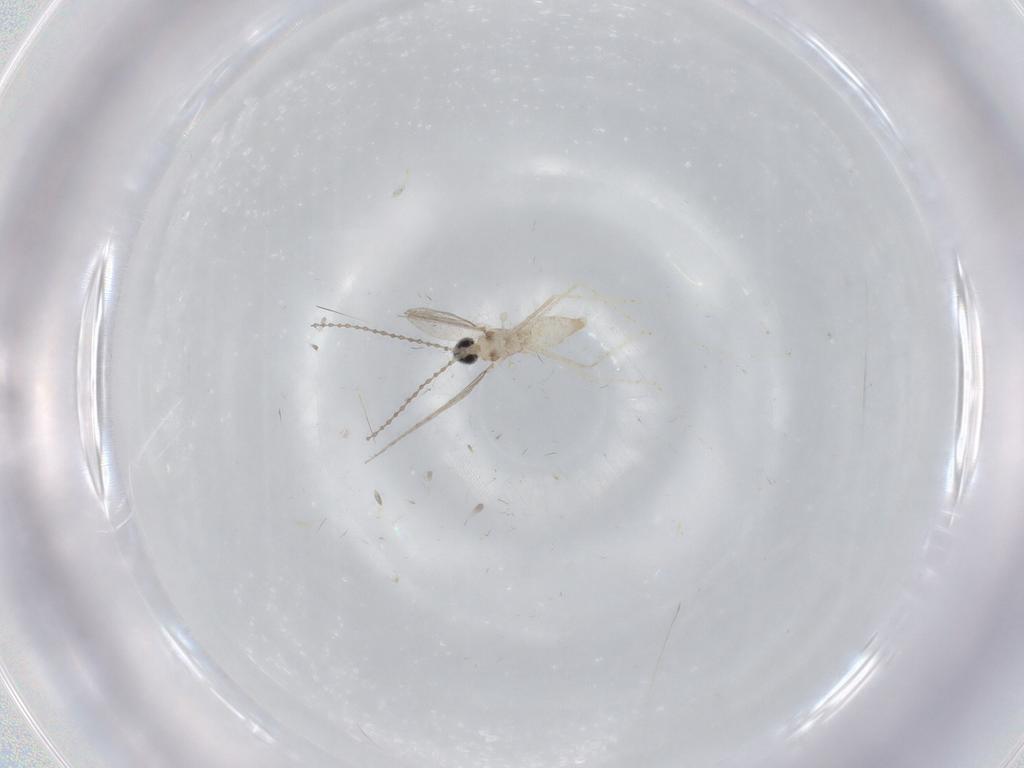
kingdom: Animalia
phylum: Arthropoda
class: Insecta
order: Diptera
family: Cecidomyiidae
